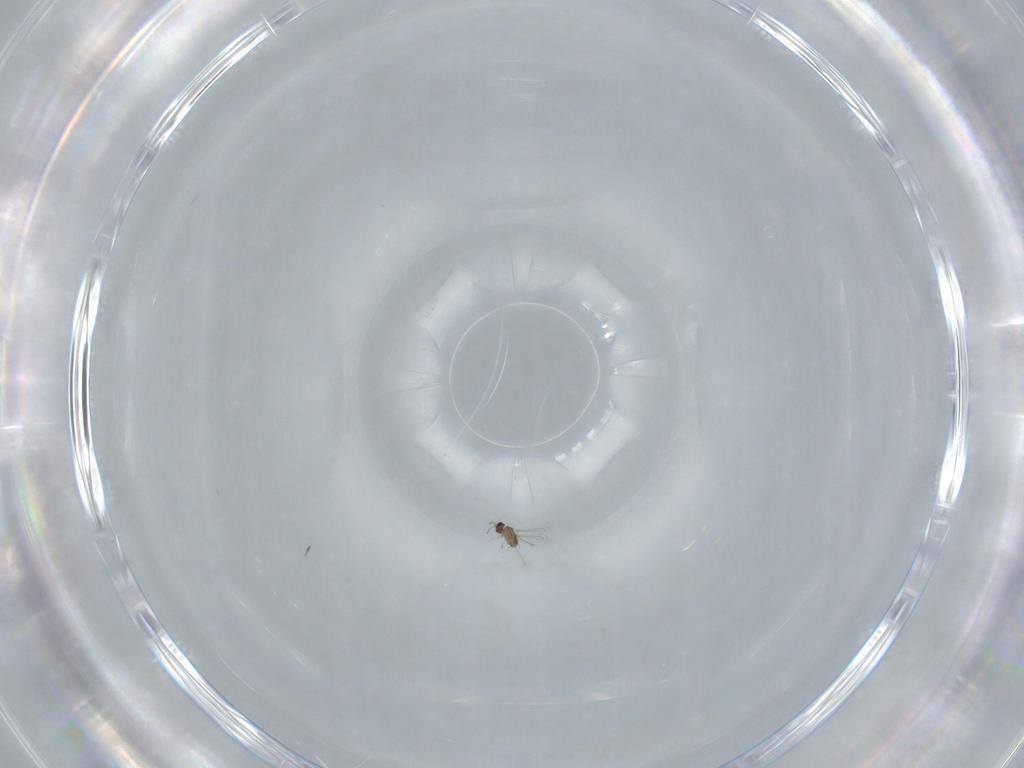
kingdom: Animalia
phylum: Arthropoda
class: Insecta
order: Hymenoptera
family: Mymaridae
